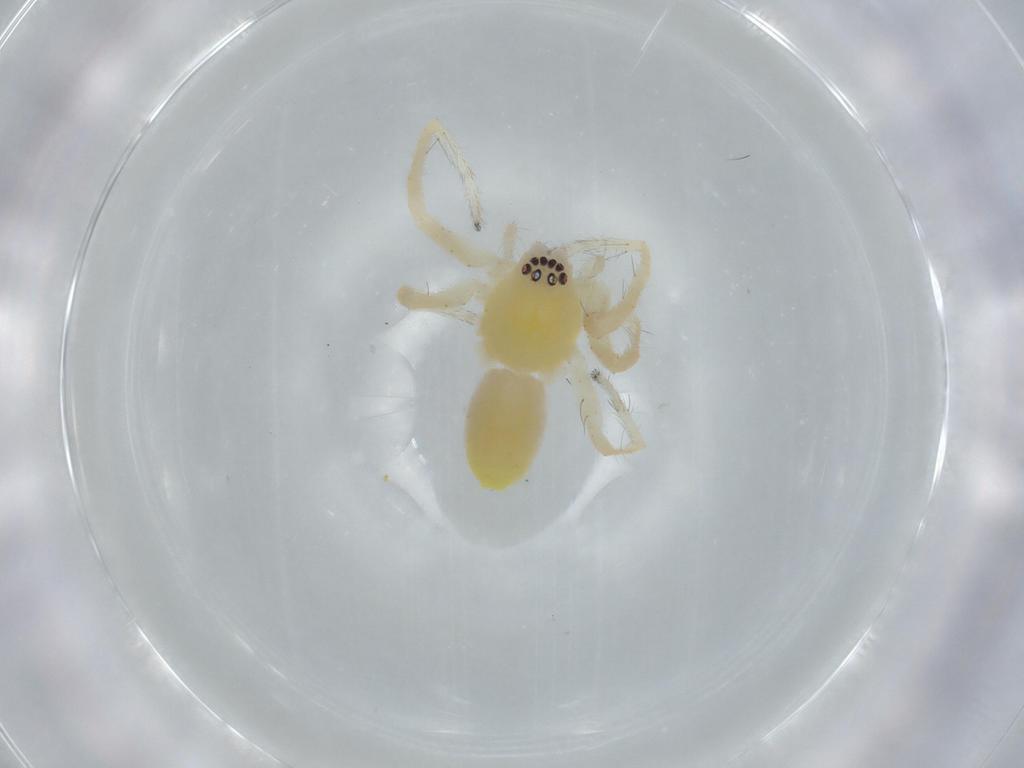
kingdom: Animalia
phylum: Arthropoda
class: Arachnida
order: Araneae
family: Anyphaenidae
